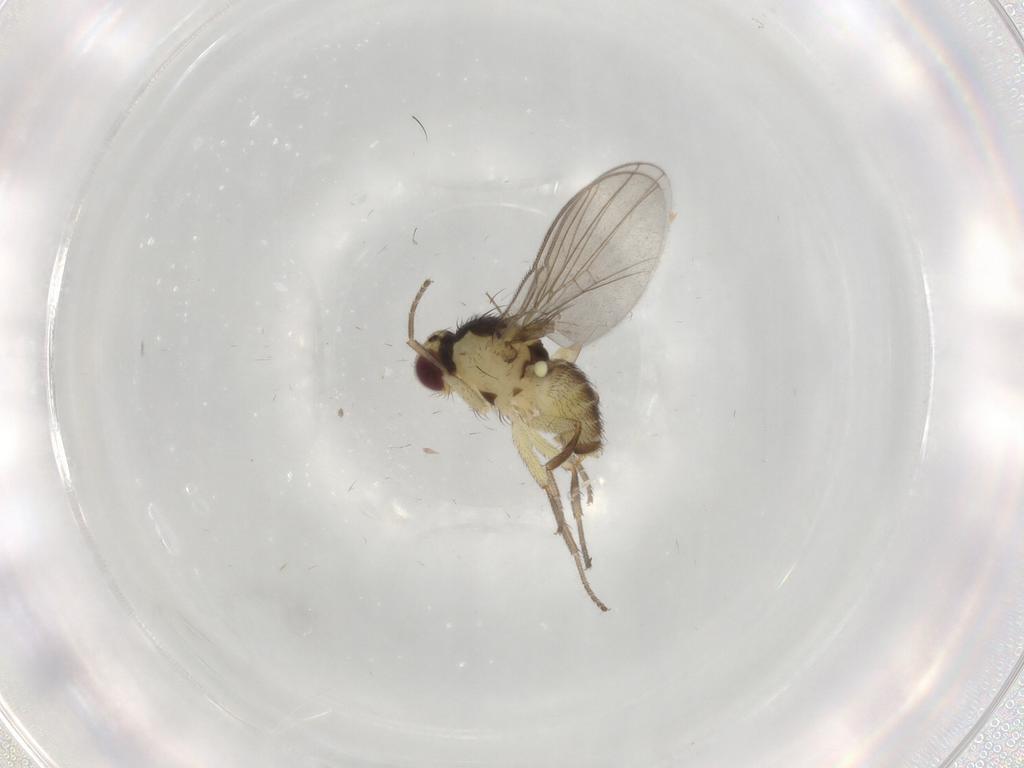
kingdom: Animalia
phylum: Arthropoda
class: Insecta
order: Diptera
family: Agromyzidae
